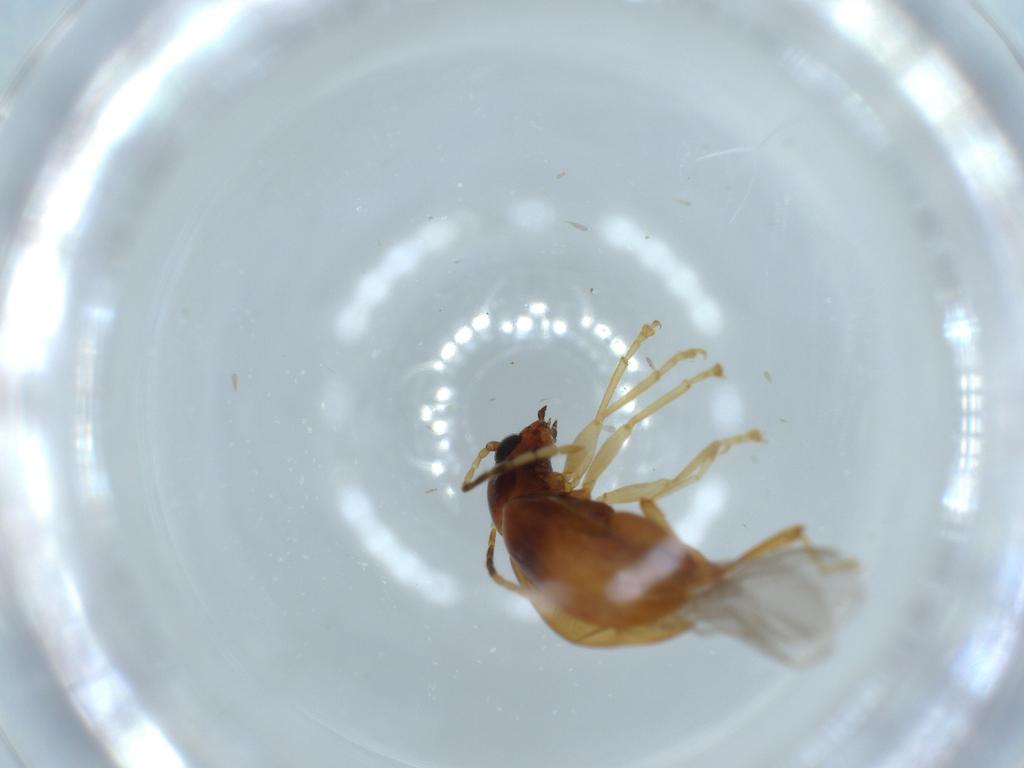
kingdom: Animalia
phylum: Arthropoda
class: Insecta
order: Coleoptera
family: Chrysomelidae
